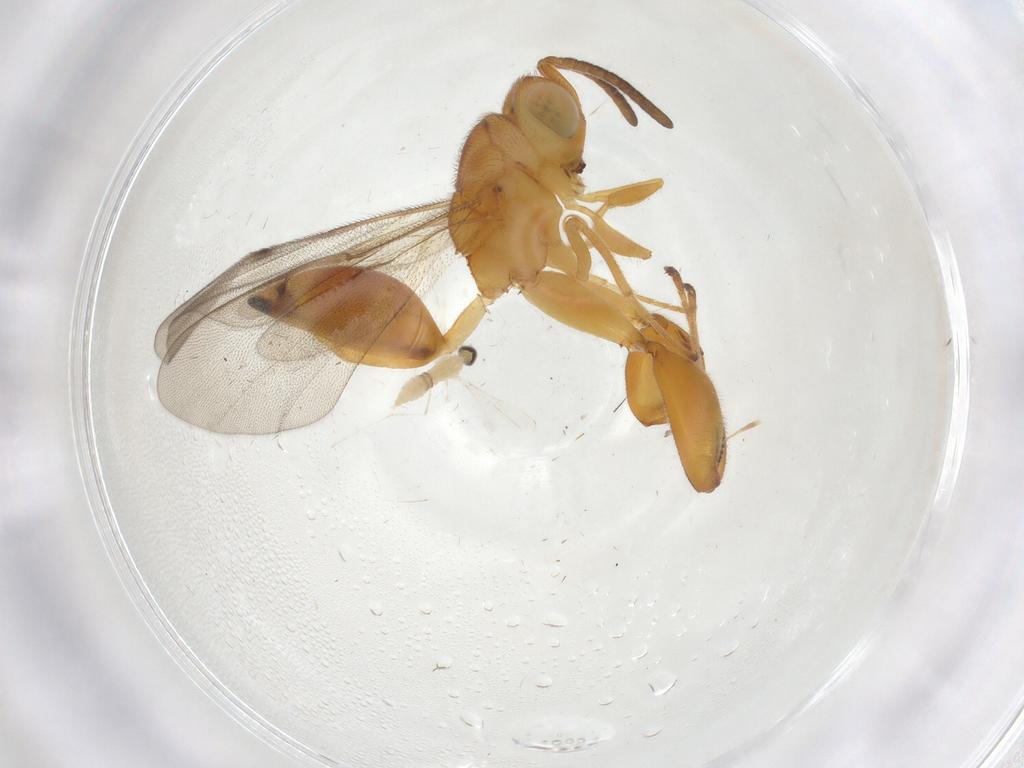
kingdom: Animalia
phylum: Arthropoda
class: Insecta
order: Hymenoptera
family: Chalcididae
